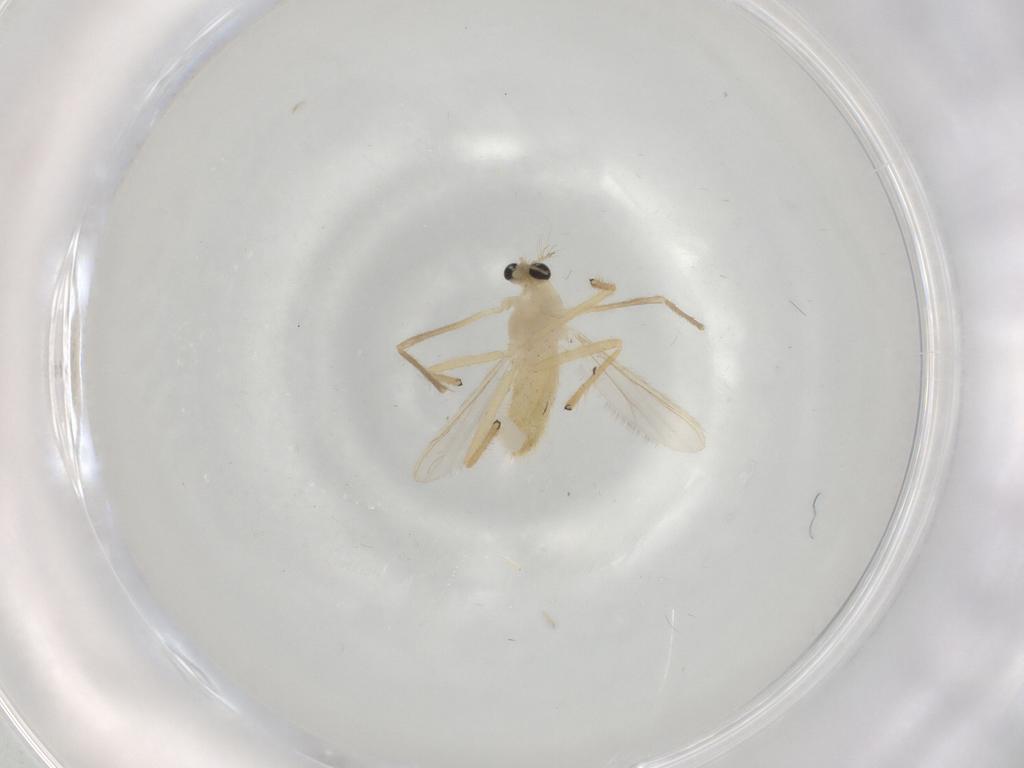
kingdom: Animalia
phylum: Arthropoda
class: Insecta
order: Diptera
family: Chironomidae
